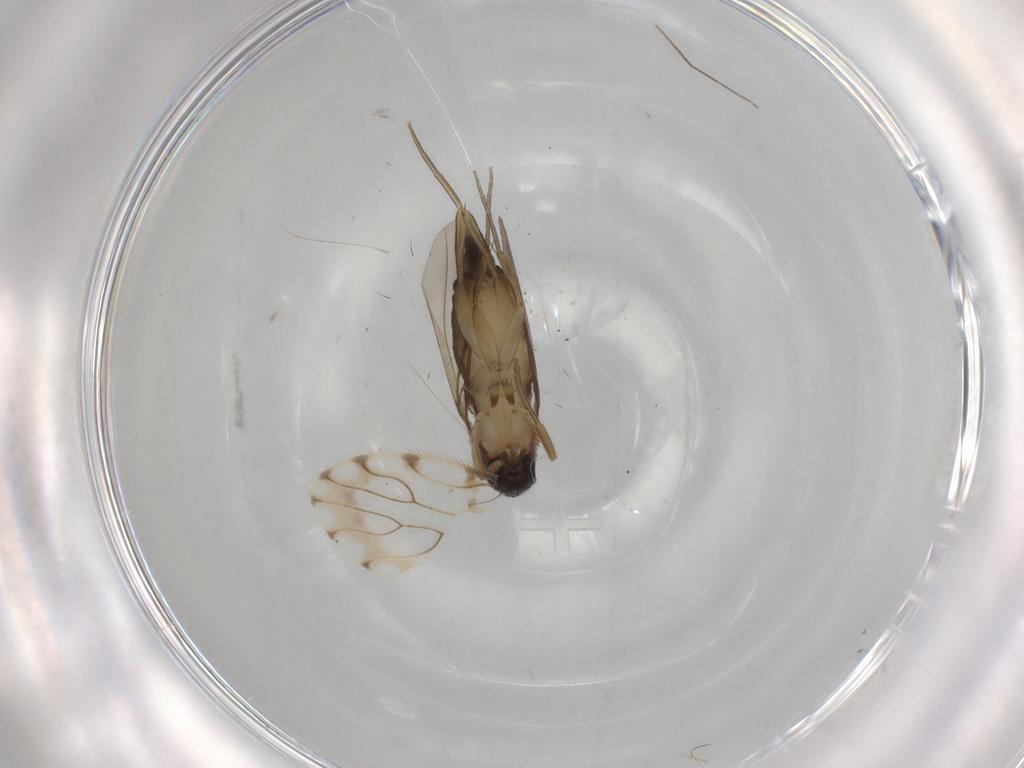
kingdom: Animalia
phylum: Arthropoda
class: Insecta
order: Diptera
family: Phoridae
